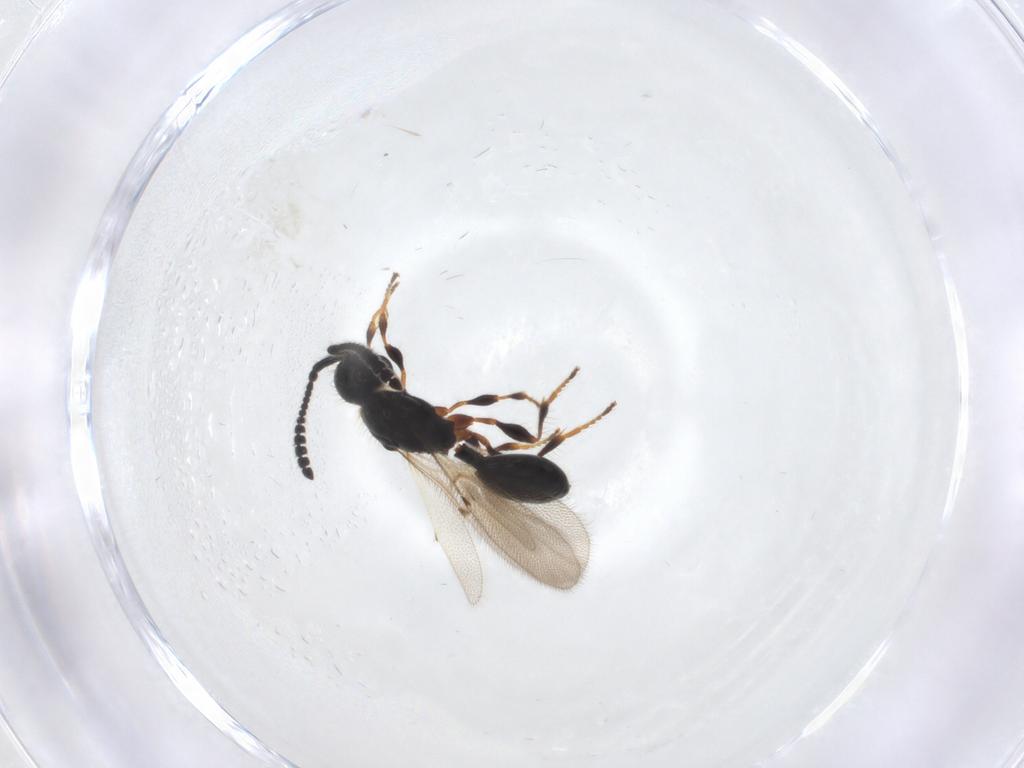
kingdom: Animalia
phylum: Arthropoda
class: Insecta
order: Hymenoptera
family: Diapriidae
